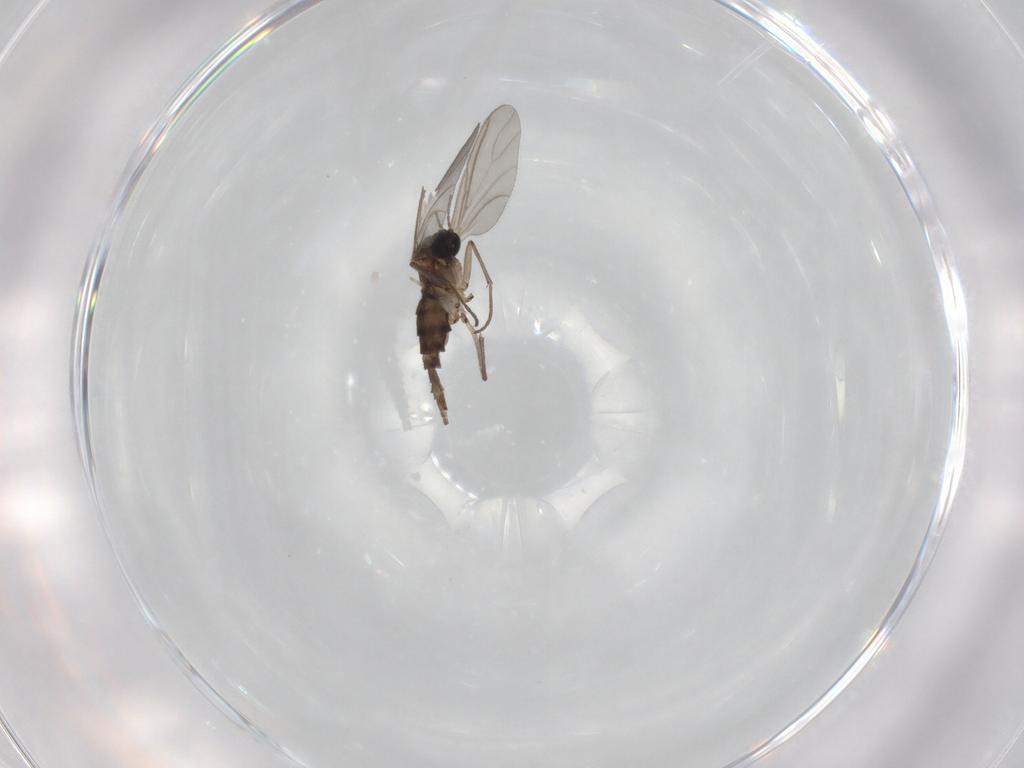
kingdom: Animalia
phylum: Arthropoda
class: Insecta
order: Diptera
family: Sciaridae
